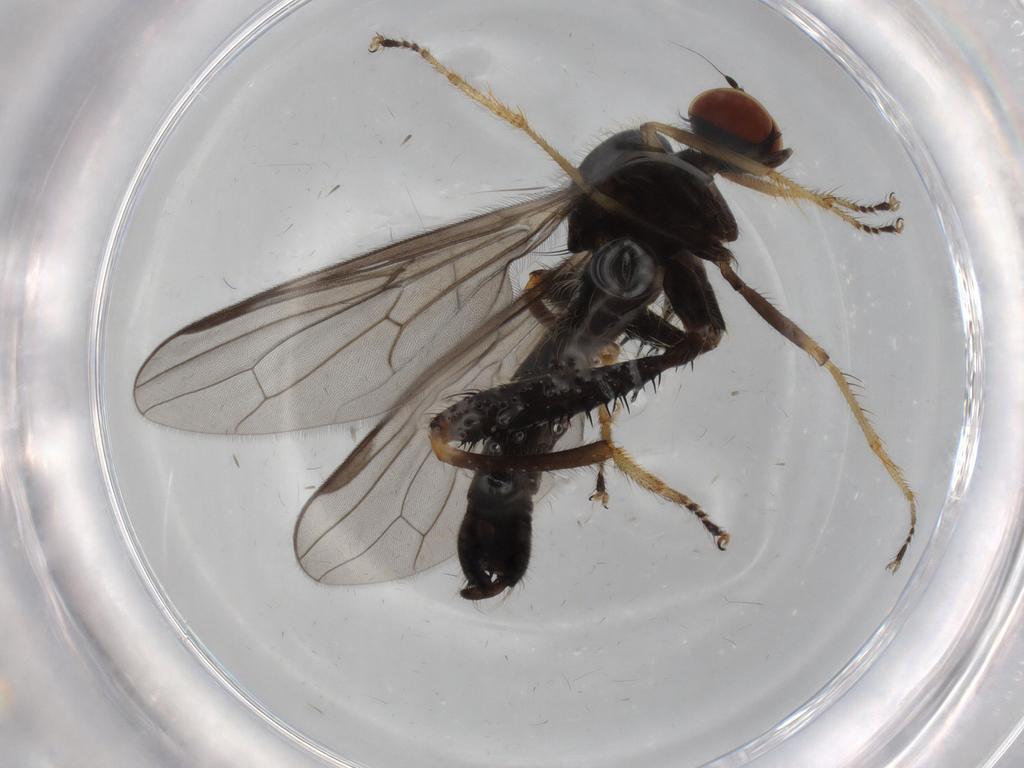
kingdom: Animalia
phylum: Arthropoda
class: Insecta
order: Diptera
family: Hybotidae
